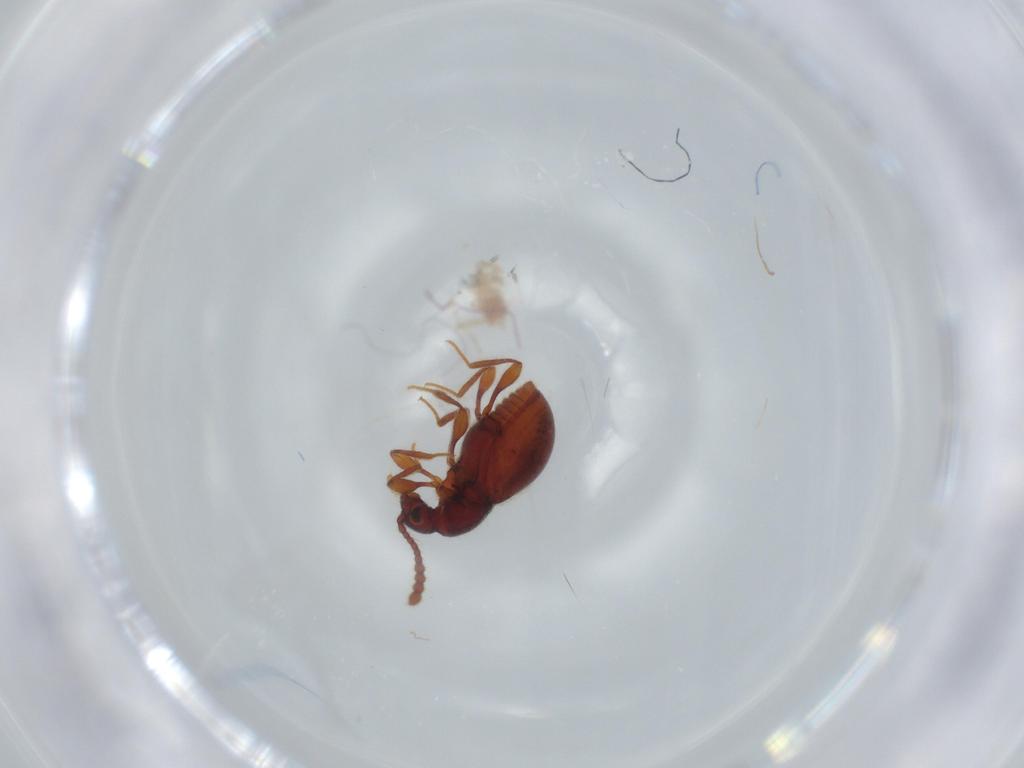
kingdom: Animalia
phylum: Arthropoda
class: Insecta
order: Coleoptera
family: Staphylinidae
